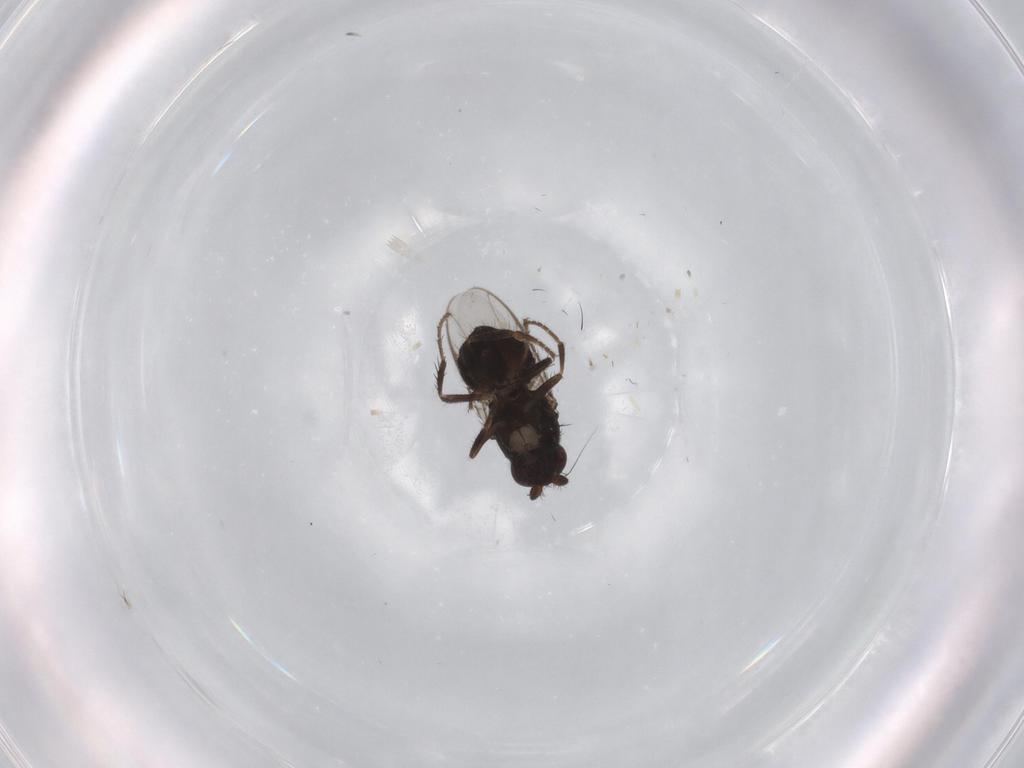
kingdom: Animalia
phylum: Arthropoda
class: Insecta
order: Diptera
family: Sphaeroceridae
